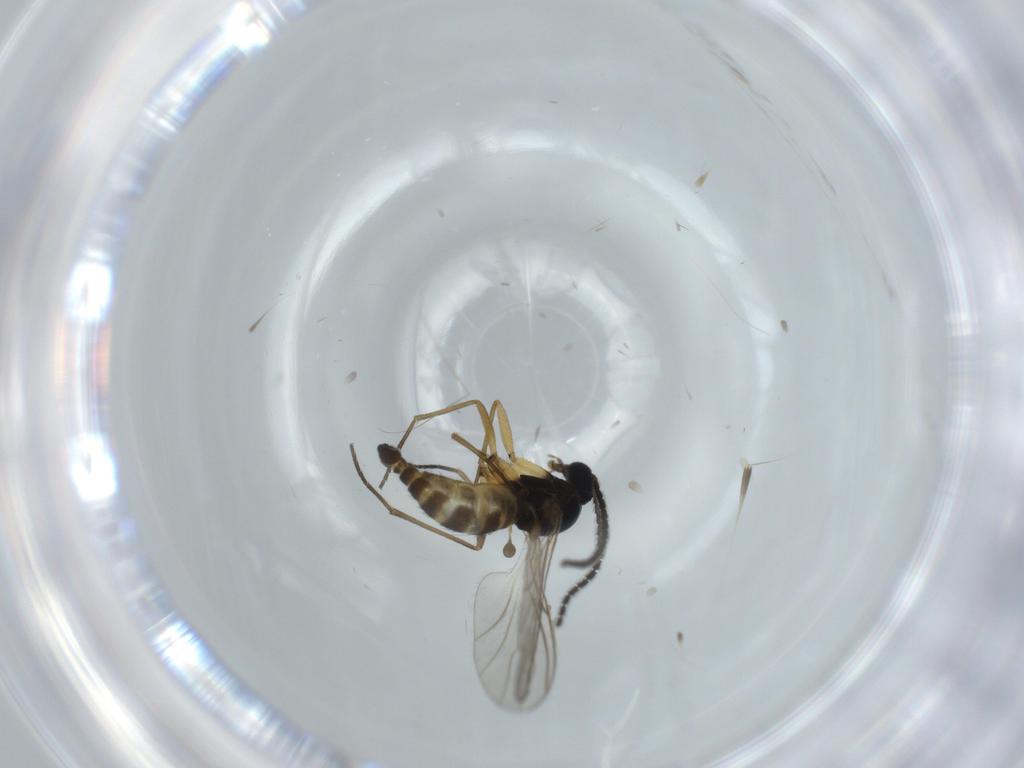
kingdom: Animalia
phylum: Arthropoda
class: Insecta
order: Diptera
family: Sciaridae
